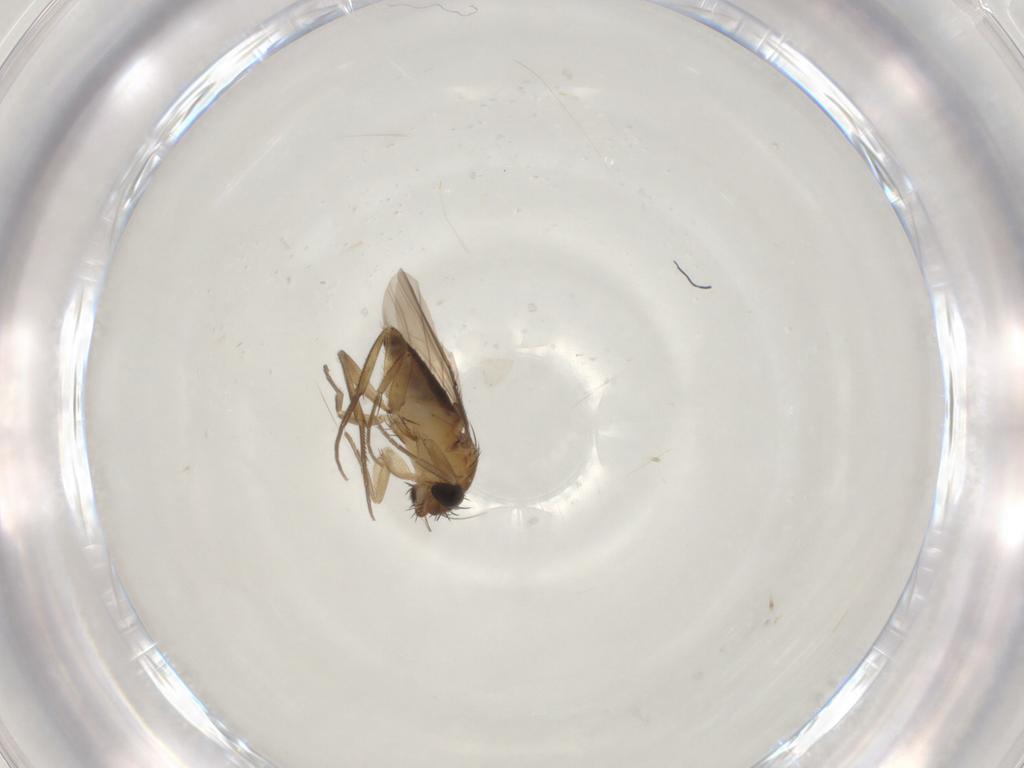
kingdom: Animalia
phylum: Arthropoda
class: Insecta
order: Diptera
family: Phoridae
